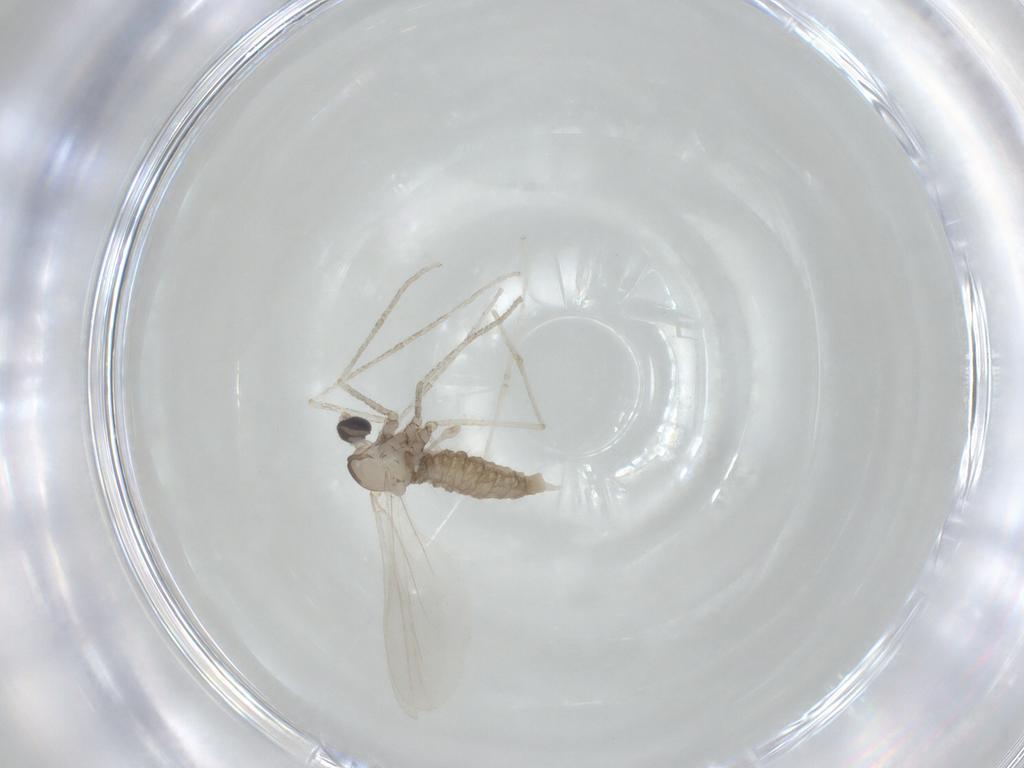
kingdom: Animalia
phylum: Arthropoda
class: Insecta
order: Diptera
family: Cecidomyiidae
